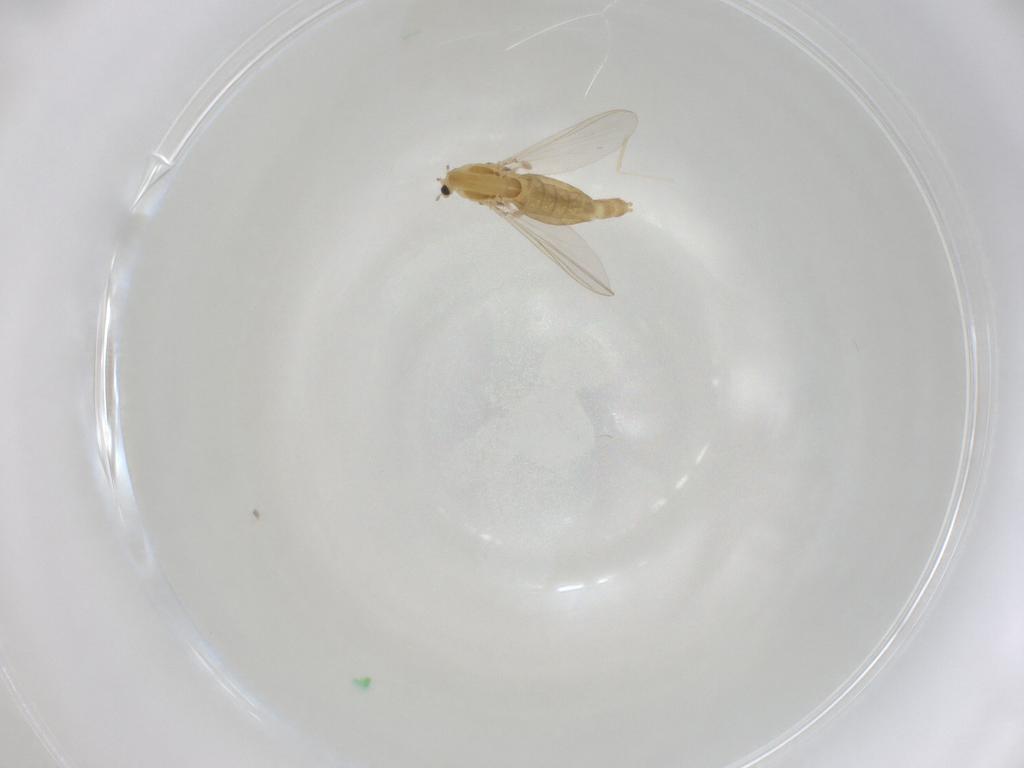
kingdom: Animalia
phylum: Arthropoda
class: Insecta
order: Diptera
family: Chironomidae
